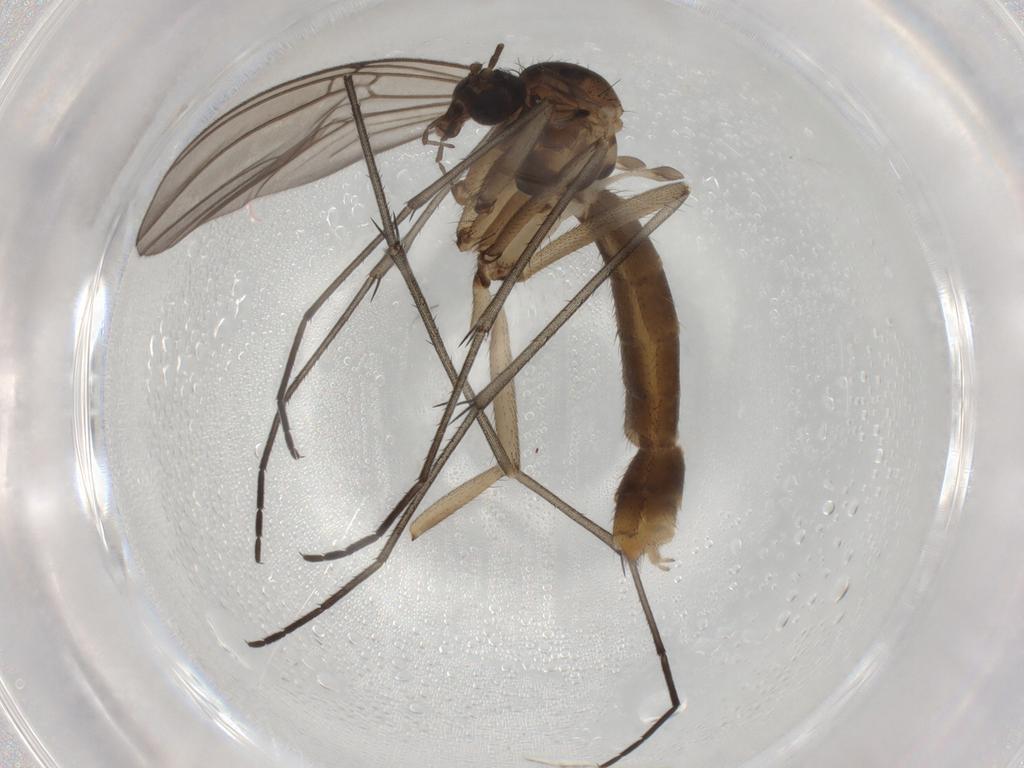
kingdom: Animalia
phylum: Arthropoda
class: Insecta
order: Diptera
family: Mycetophilidae
